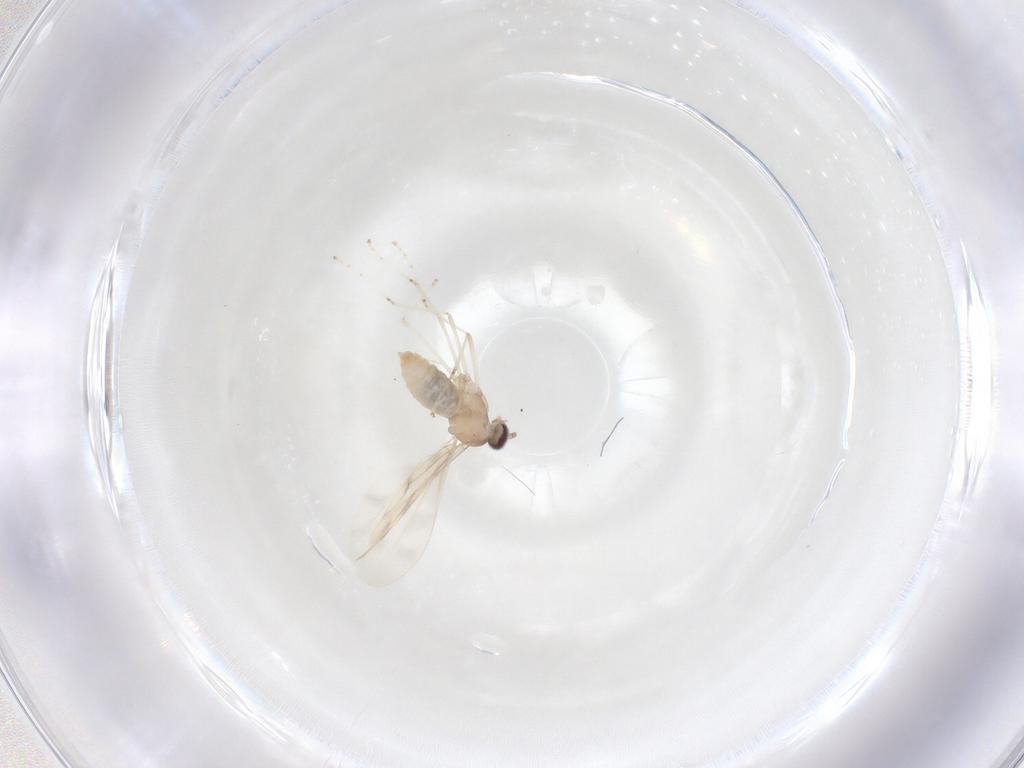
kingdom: Animalia
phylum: Arthropoda
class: Insecta
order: Diptera
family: Cecidomyiidae
